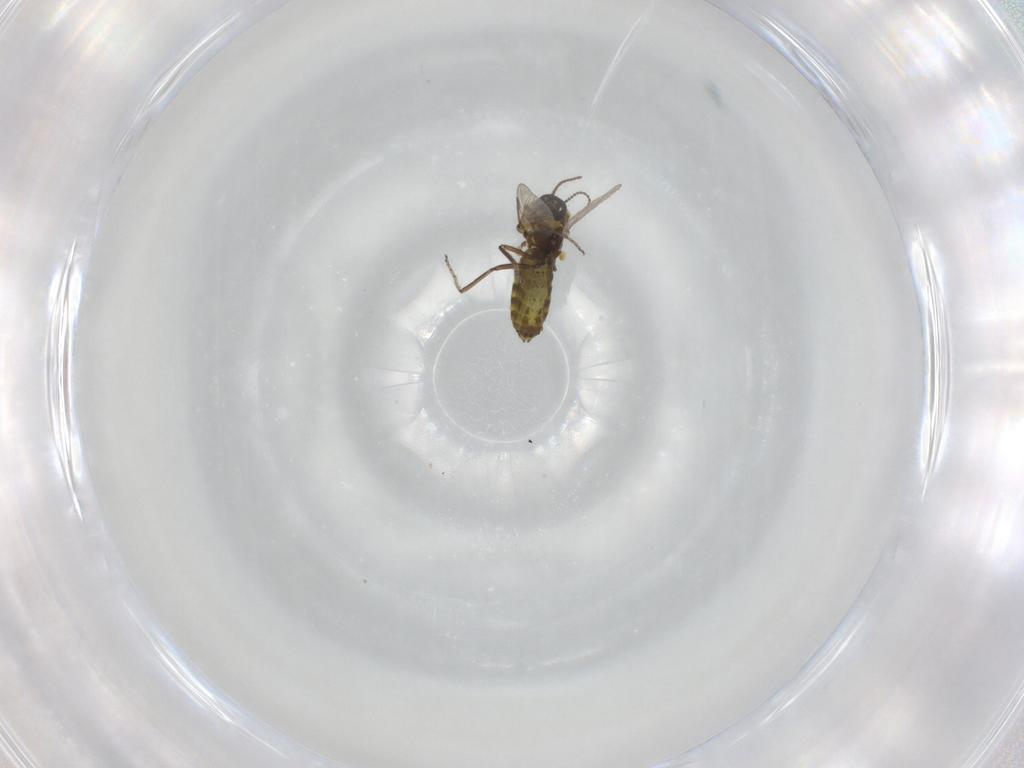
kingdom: Animalia
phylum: Arthropoda
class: Insecta
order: Diptera
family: Ceratopogonidae
